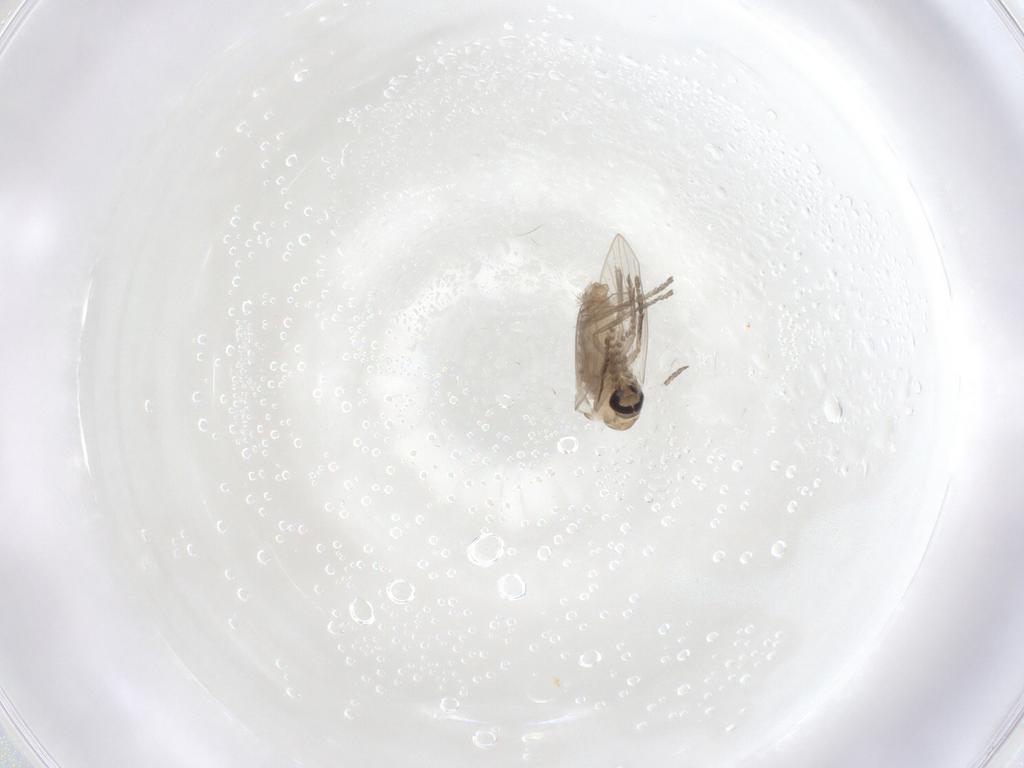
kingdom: Animalia
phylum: Arthropoda
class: Insecta
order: Diptera
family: Psychodidae
